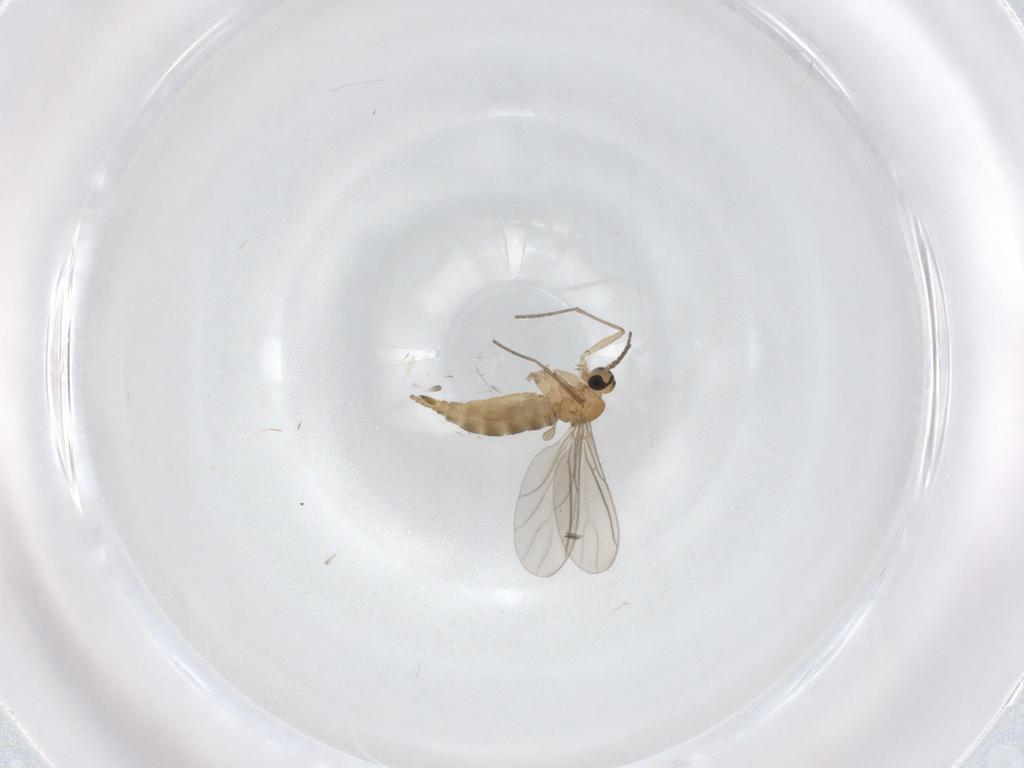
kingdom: Animalia
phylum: Arthropoda
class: Insecta
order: Diptera
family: Sciaridae
